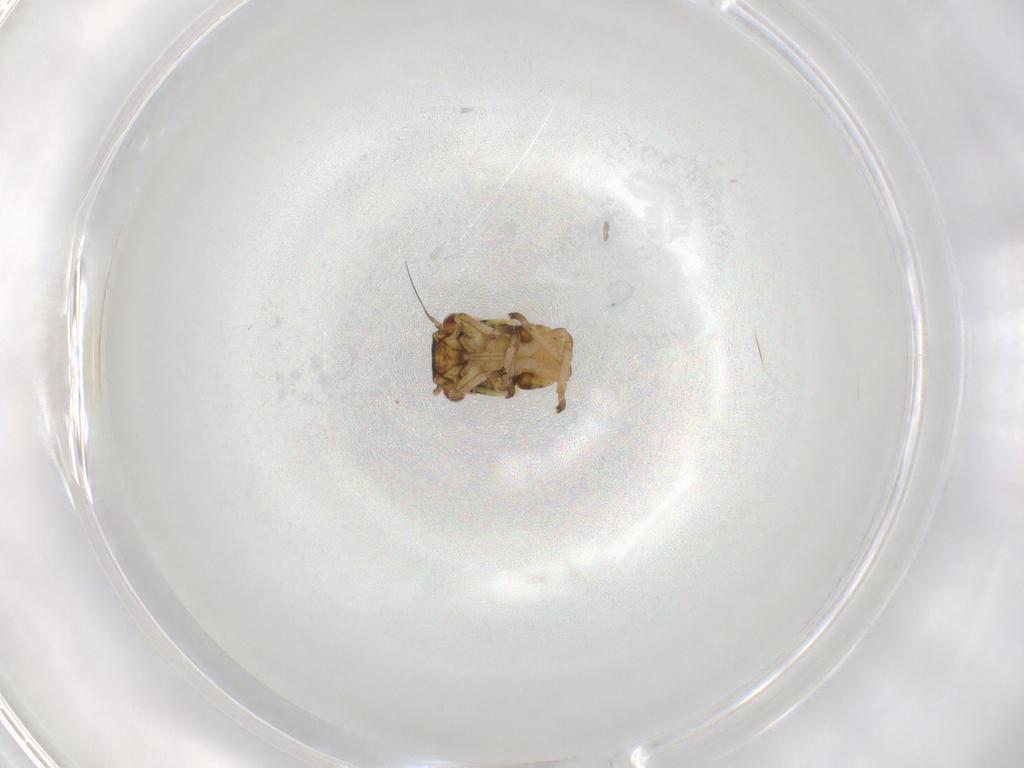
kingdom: Animalia
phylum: Arthropoda
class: Insecta
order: Hemiptera
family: Cicadellidae
